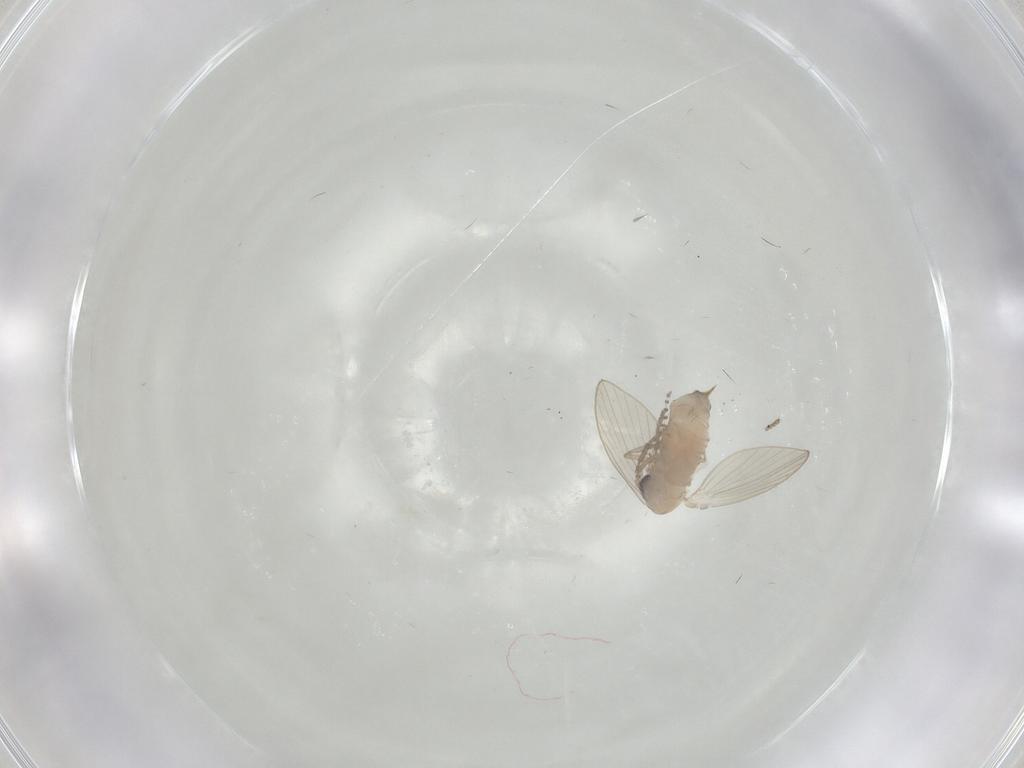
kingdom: Animalia
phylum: Arthropoda
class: Insecta
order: Diptera
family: Psychodidae
